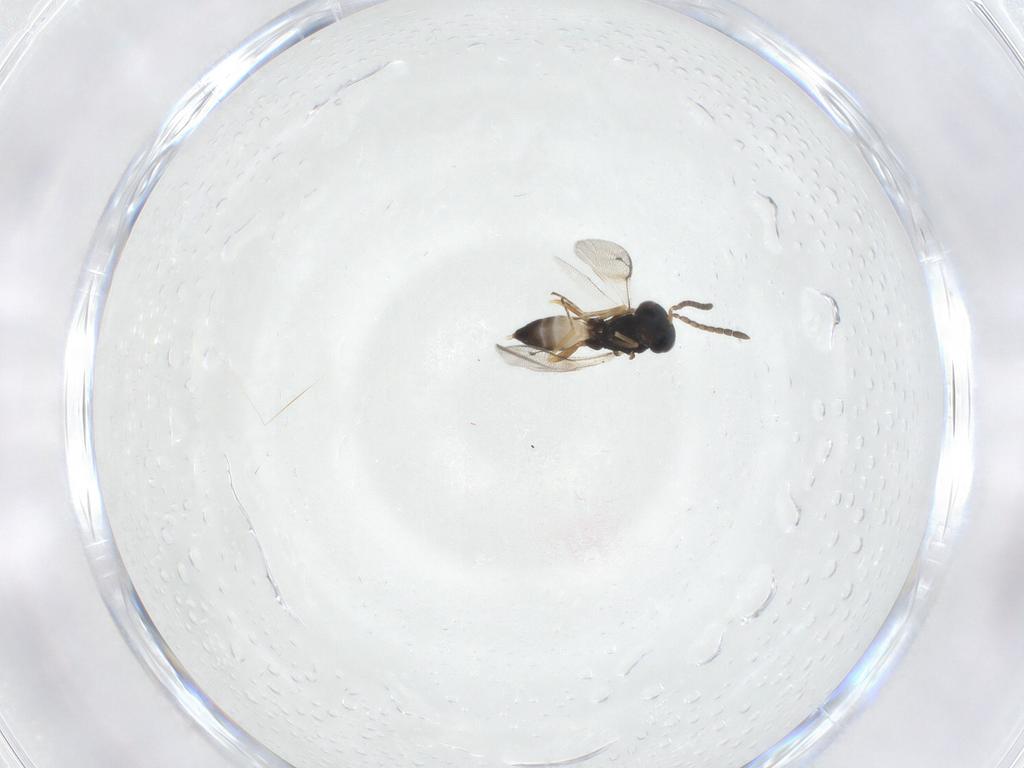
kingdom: Animalia
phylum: Arthropoda
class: Insecta
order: Hymenoptera
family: Pteromalidae
